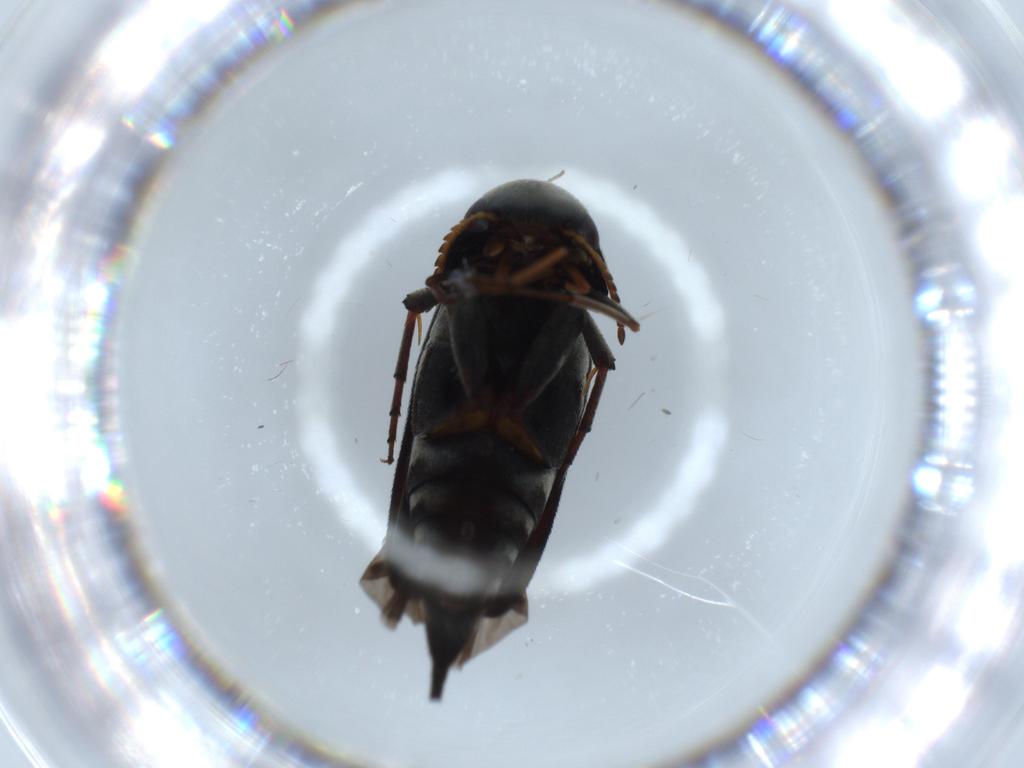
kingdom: Animalia
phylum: Arthropoda
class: Insecta
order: Coleoptera
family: Mordellidae
